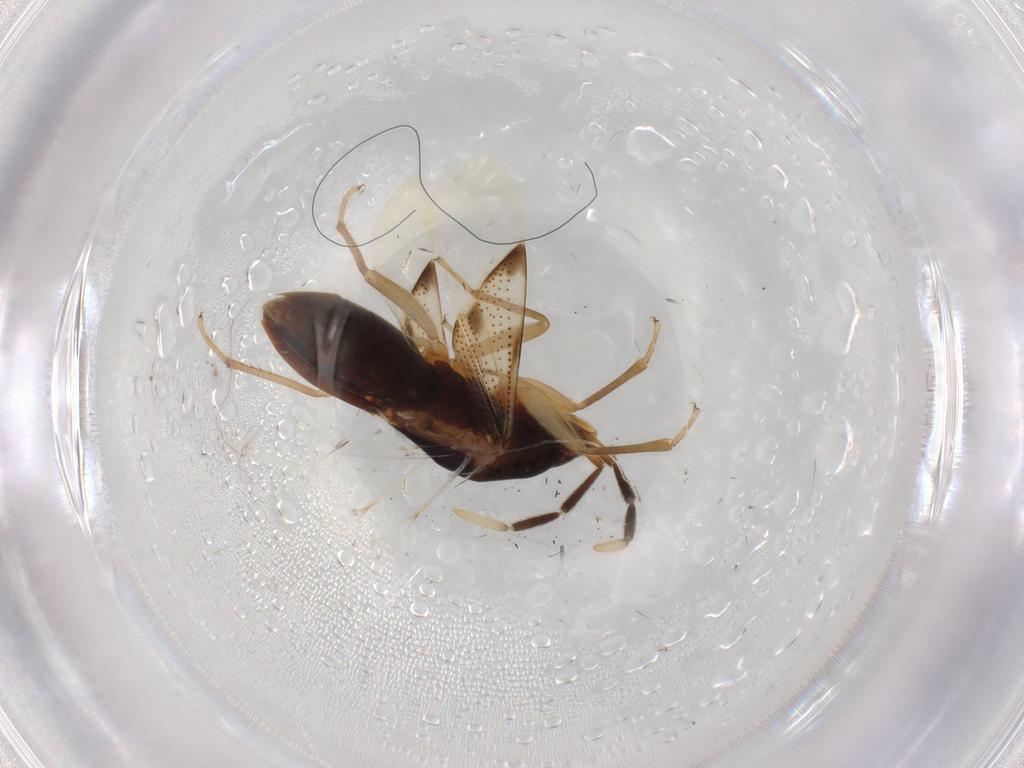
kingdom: Animalia
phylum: Arthropoda
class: Insecta
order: Hemiptera
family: Rhyparochromidae
